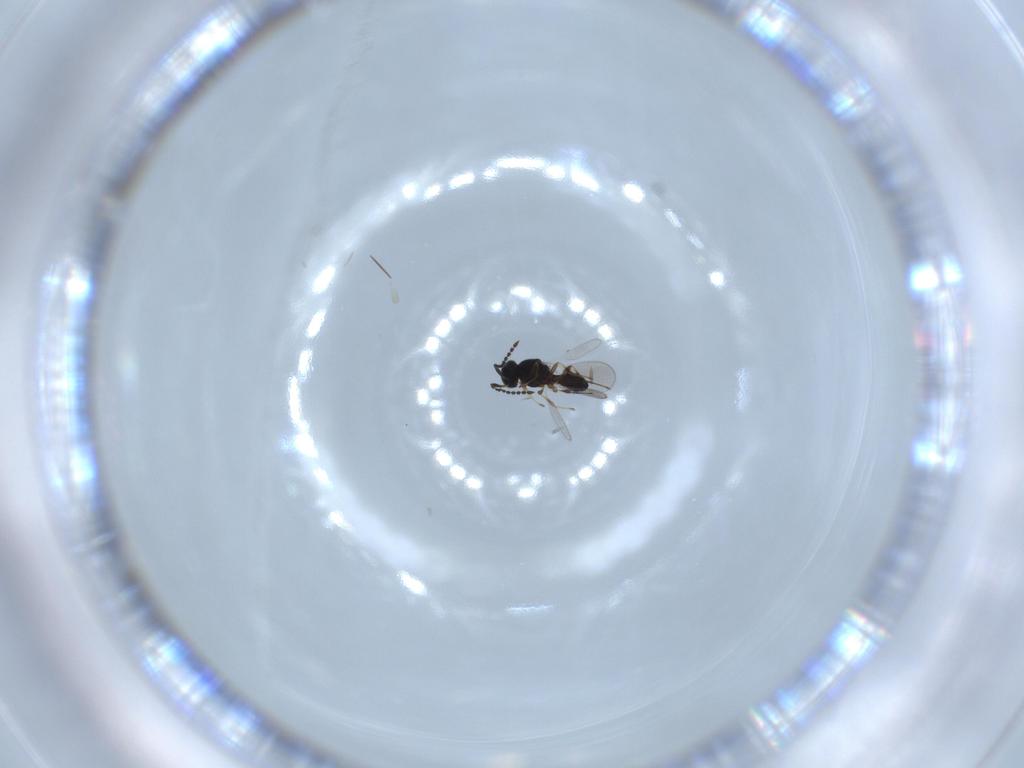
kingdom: Animalia
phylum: Arthropoda
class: Insecta
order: Hymenoptera
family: Platygastridae
